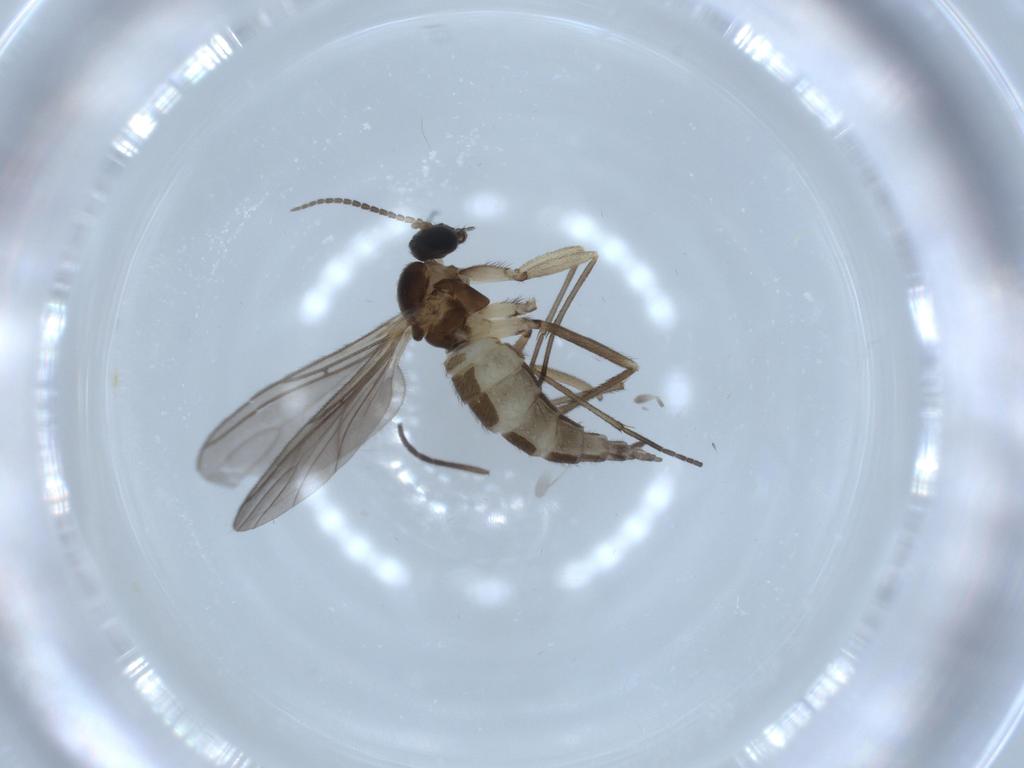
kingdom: Animalia
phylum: Arthropoda
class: Insecta
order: Diptera
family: Sciaridae
